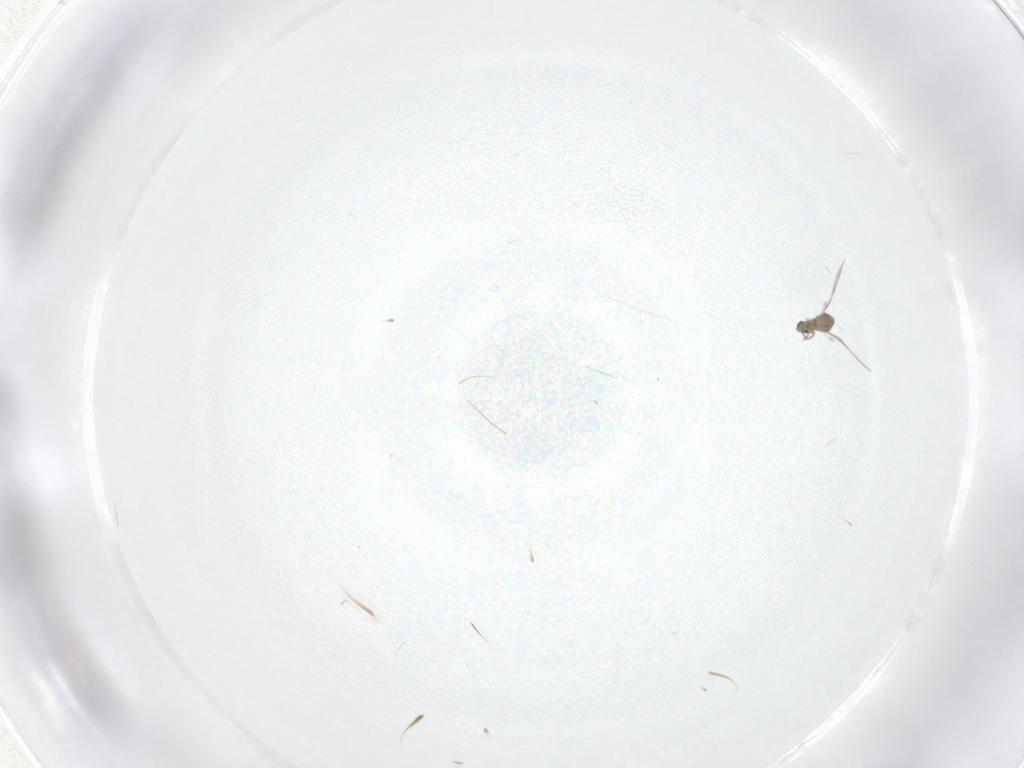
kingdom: Animalia
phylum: Arthropoda
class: Insecta
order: Diptera
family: Cecidomyiidae
